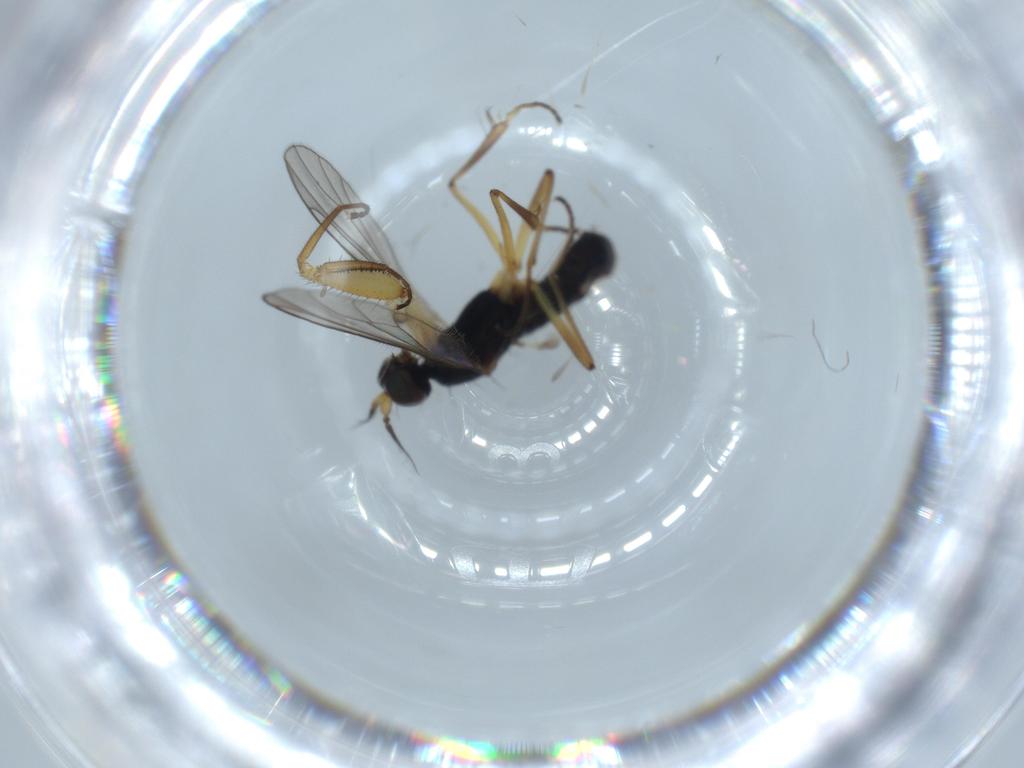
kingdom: Animalia
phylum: Arthropoda
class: Insecta
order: Diptera
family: Empididae
